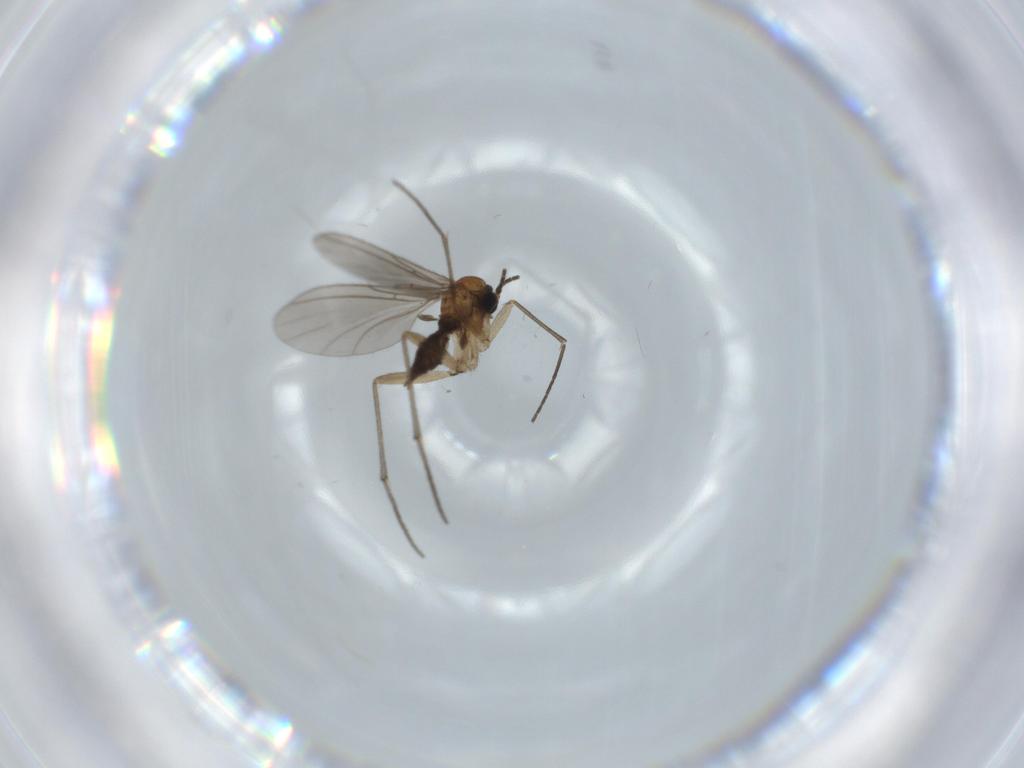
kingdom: Animalia
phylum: Arthropoda
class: Insecta
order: Diptera
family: Sciaridae
